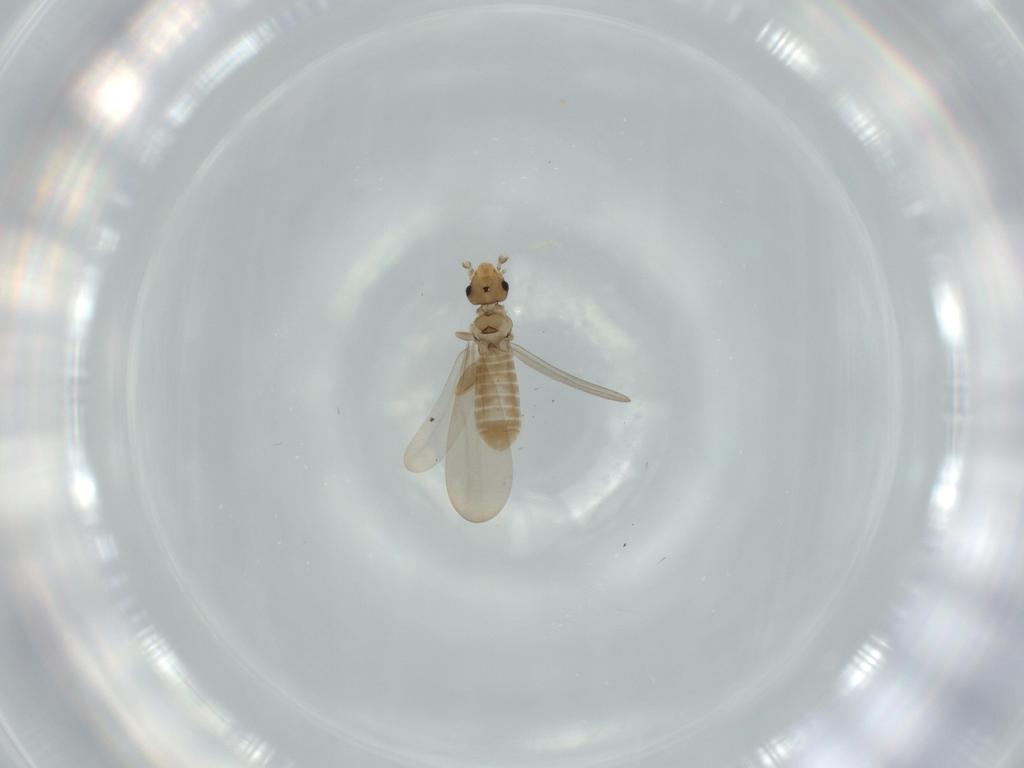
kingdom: Animalia
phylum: Arthropoda
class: Insecta
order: Psocodea
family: Liposcelididae
